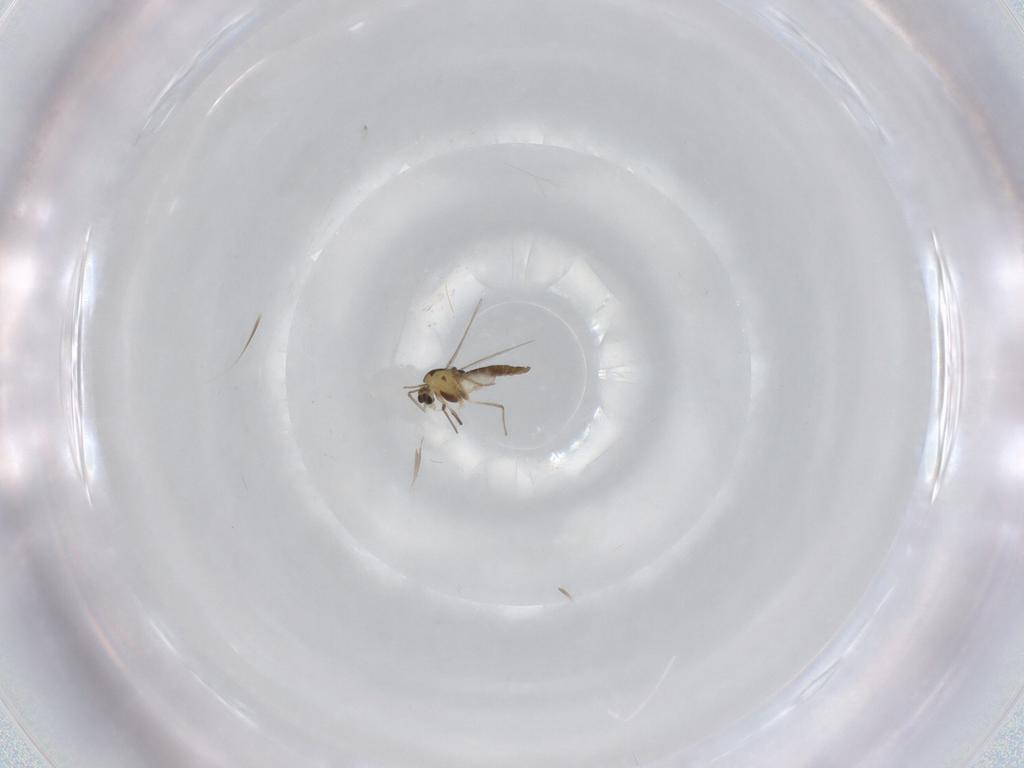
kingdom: Animalia
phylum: Arthropoda
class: Insecta
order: Diptera
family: Chironomidae
